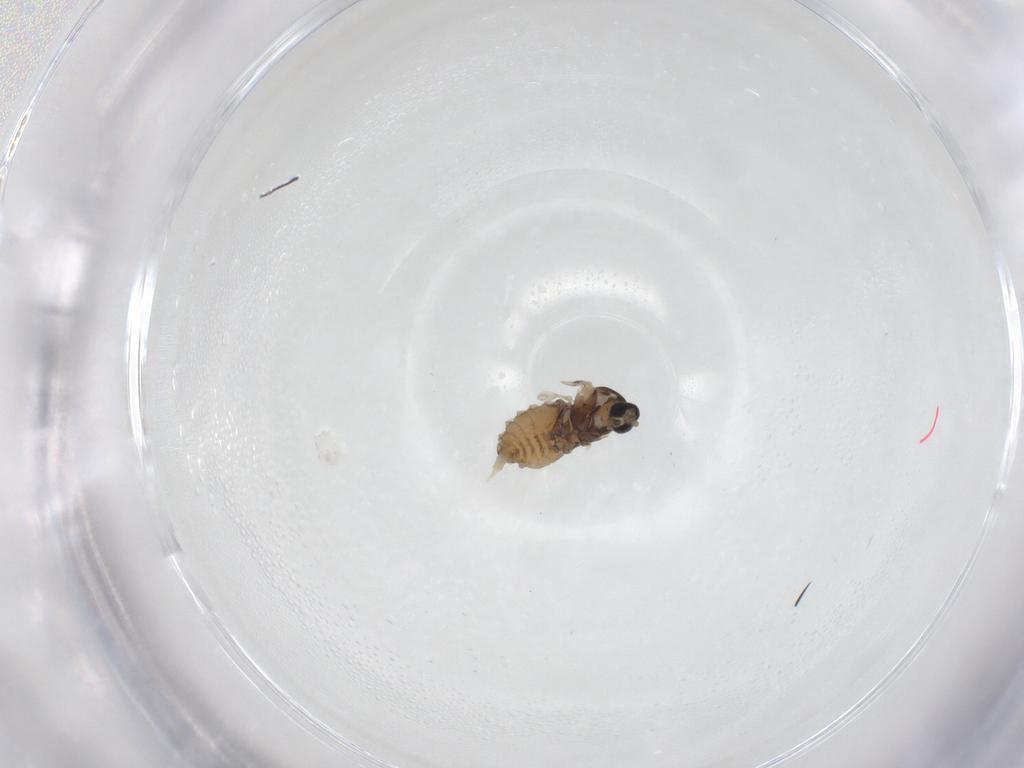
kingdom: Animalia
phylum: Arthropoda
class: Insecta
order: Diptera
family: Cecidomyiidae
